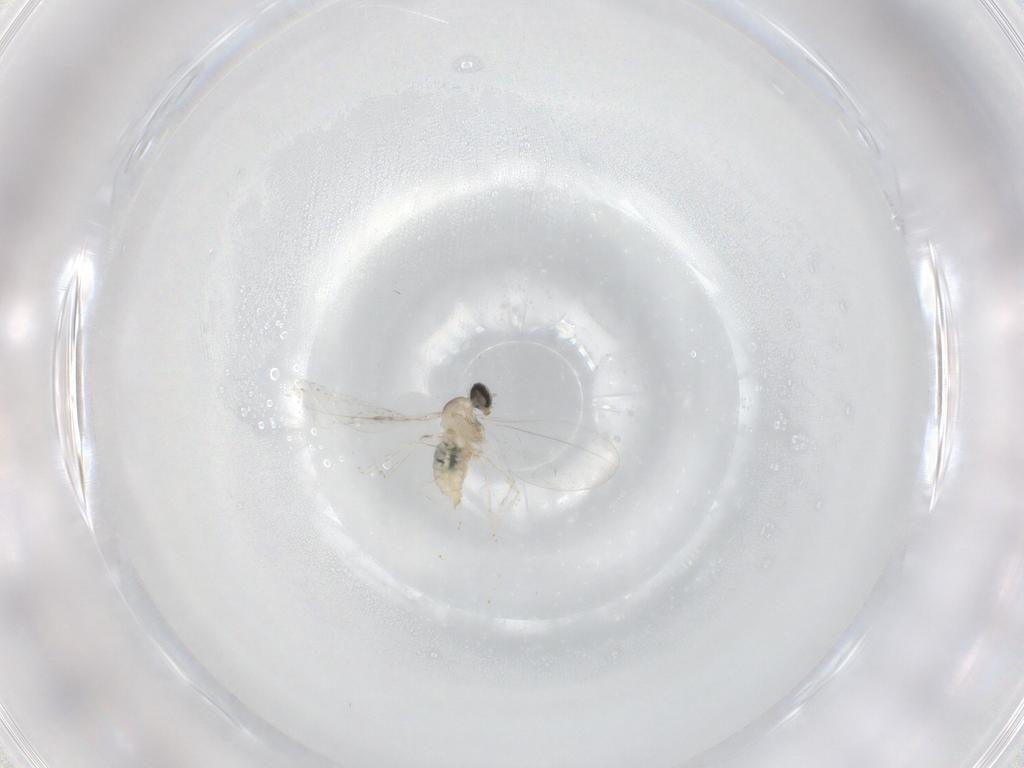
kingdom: Animalia
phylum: Arthropoda
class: Insecta
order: Diptera
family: Cecidomyiidae
